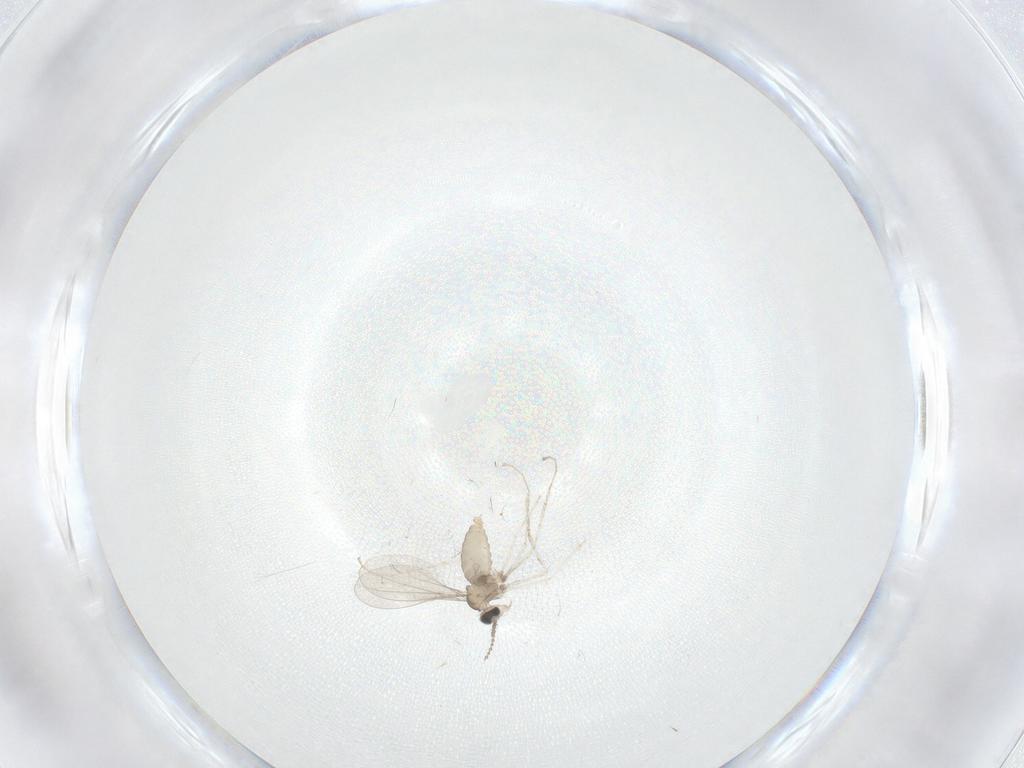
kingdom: Animalia
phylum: Arthropoda
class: Insecta
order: Diptera
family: Cecidomyiidae
